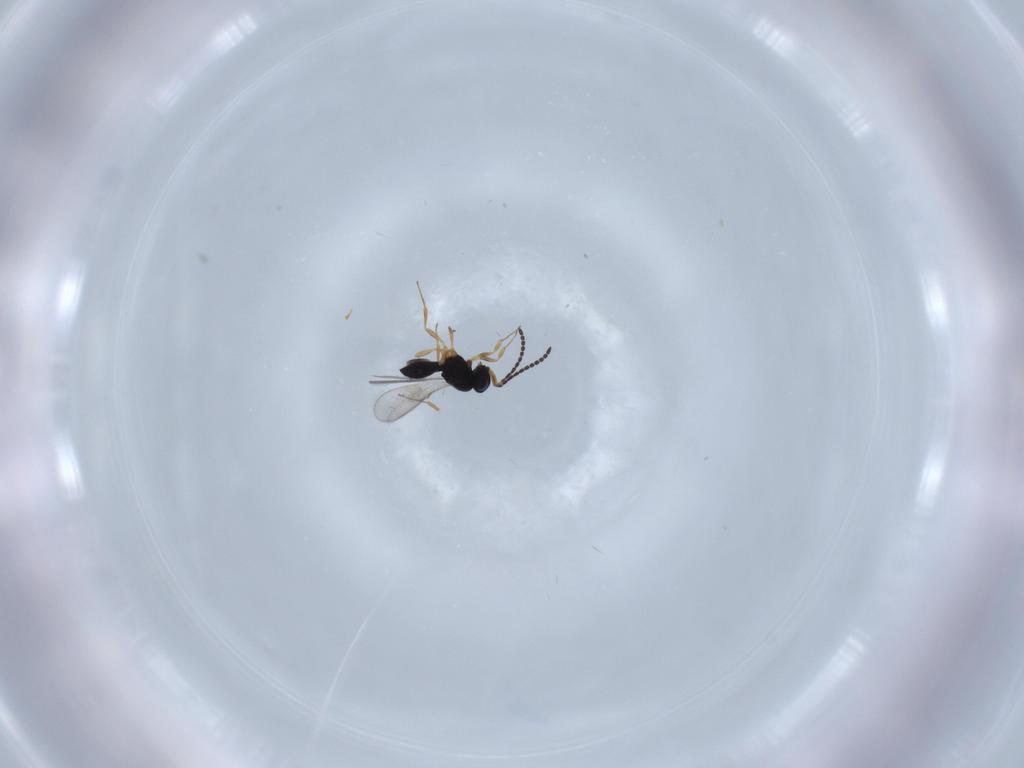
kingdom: Animalia
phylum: Arthropoda
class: Insecta
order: Hymenoptera
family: Scelionidae
